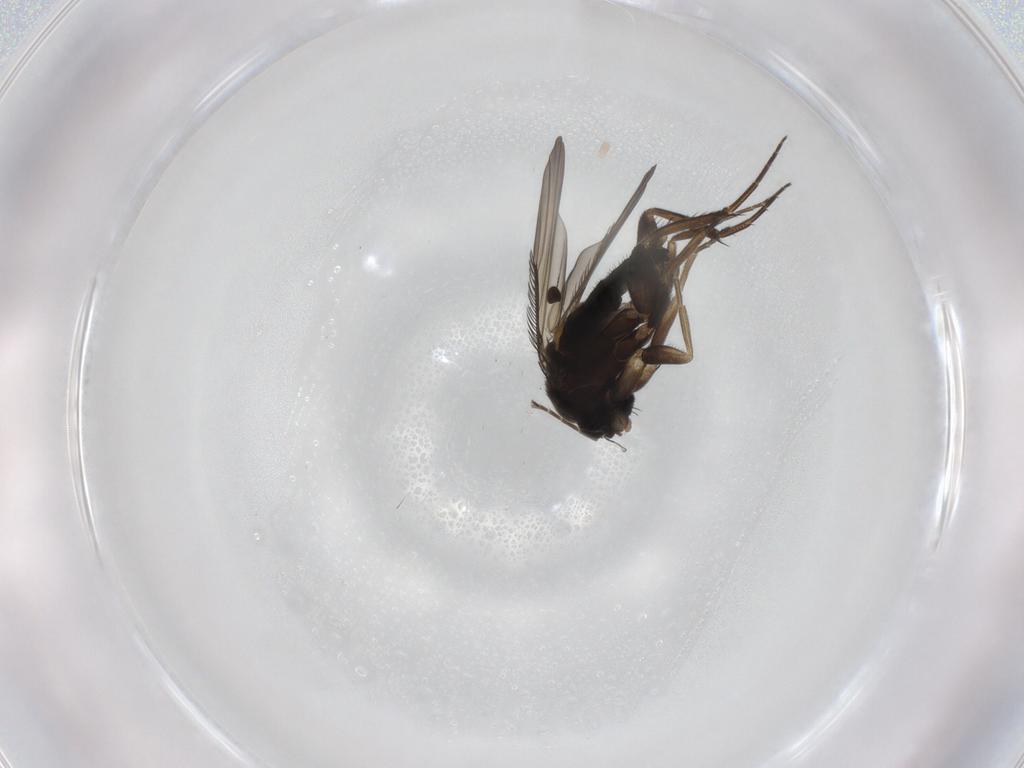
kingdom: Animalia
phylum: Arthropoda
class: Insecta
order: Diptera
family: Phoridae
